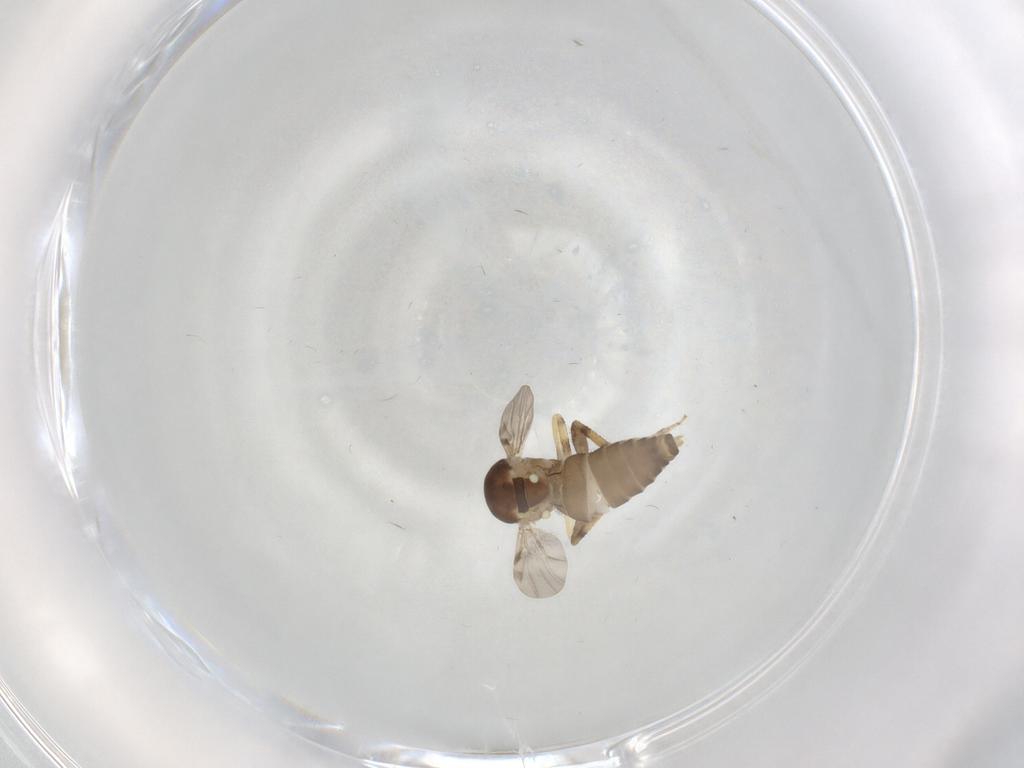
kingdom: Animalia
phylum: Arthropoda
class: Insecta
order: Diptera
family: Ceratopogonidae
